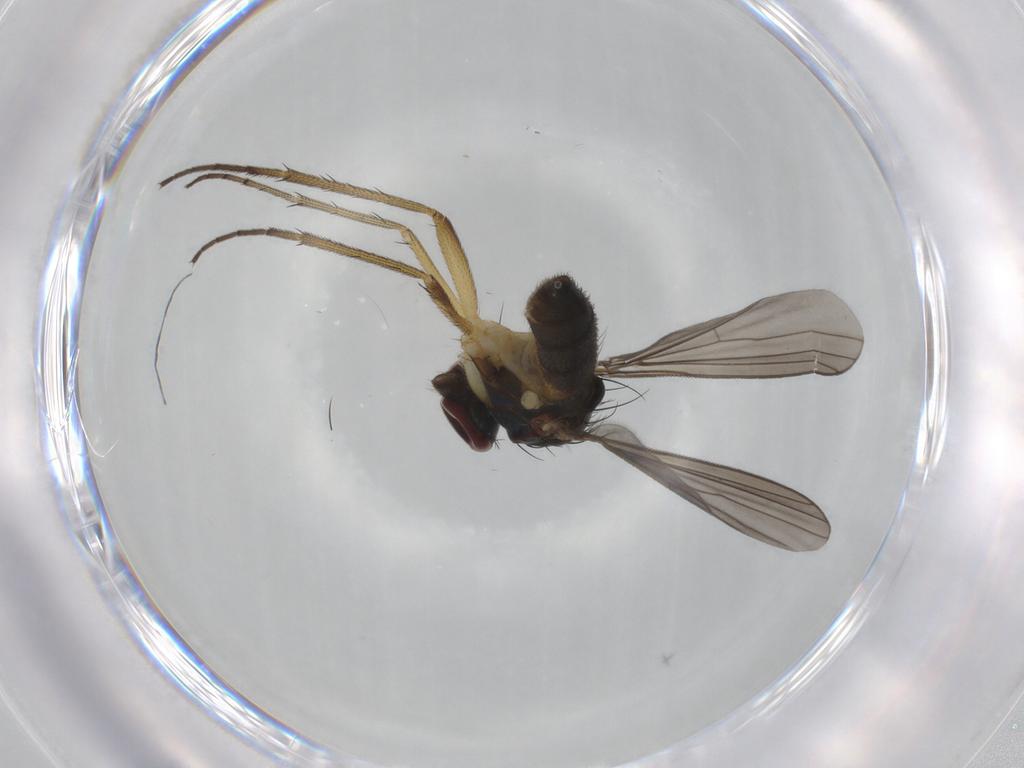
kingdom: Animalia
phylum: Arthropoda
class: Insecta
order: Diptera
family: Dolichopodidae
